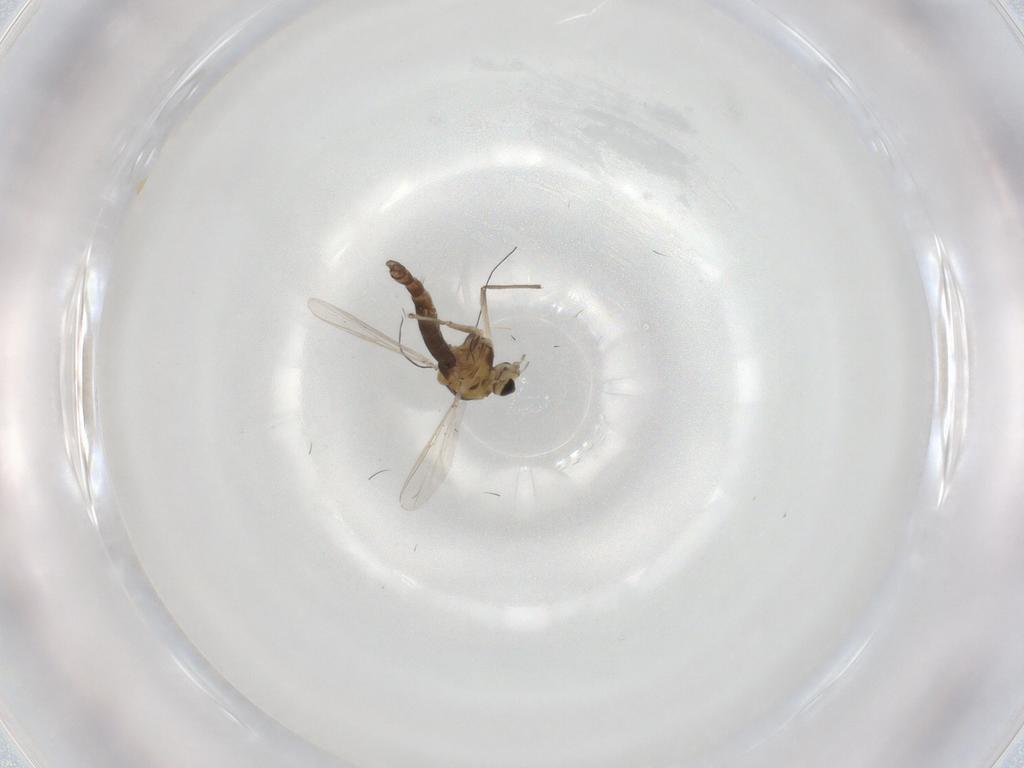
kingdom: Animalia
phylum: Arthropoda
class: Insecta
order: Diptera
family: Chironomidae
